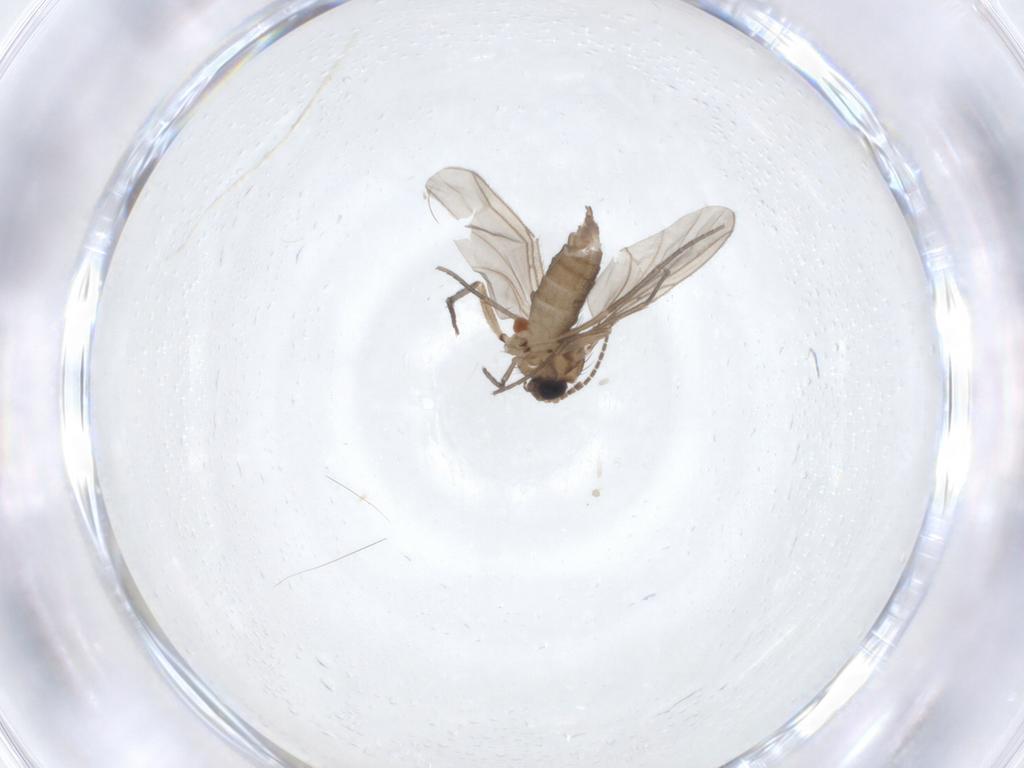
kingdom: Animalia
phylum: Arthropoda
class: Insecta
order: Diptera
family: Sciaridae
